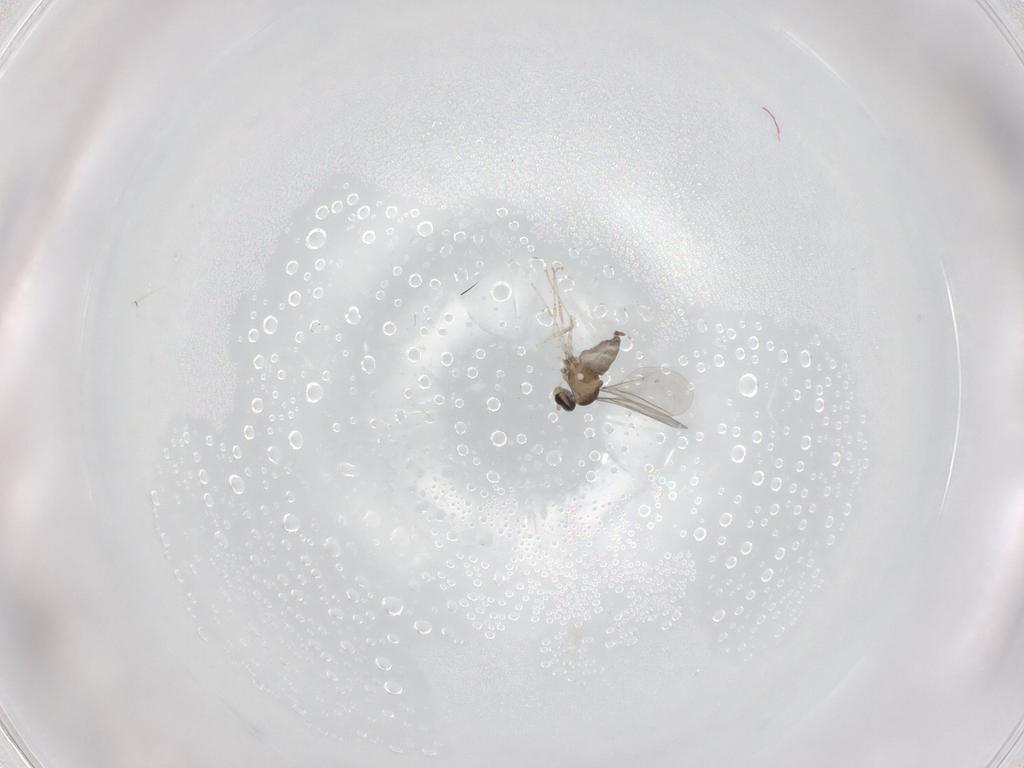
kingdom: Animalia
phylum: Arthropoda
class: Insecta
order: Diptera
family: Cecidomyiidae
